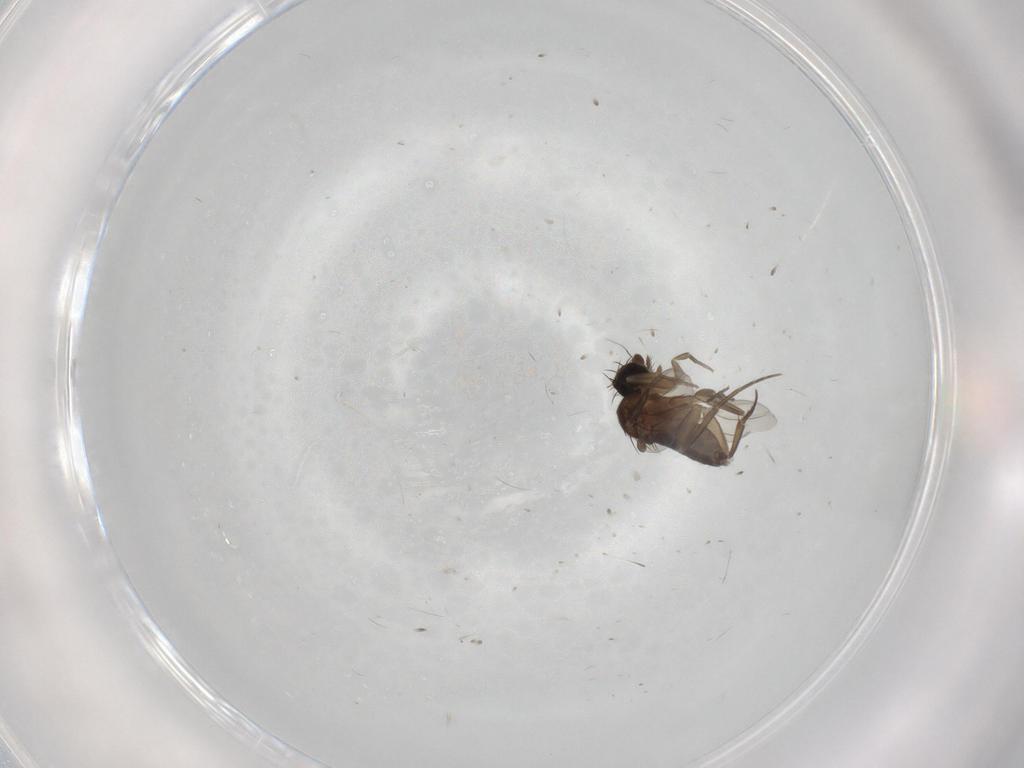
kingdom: Animalia
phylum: Arthropoda
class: Insecta
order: Diptera
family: Phoridae
